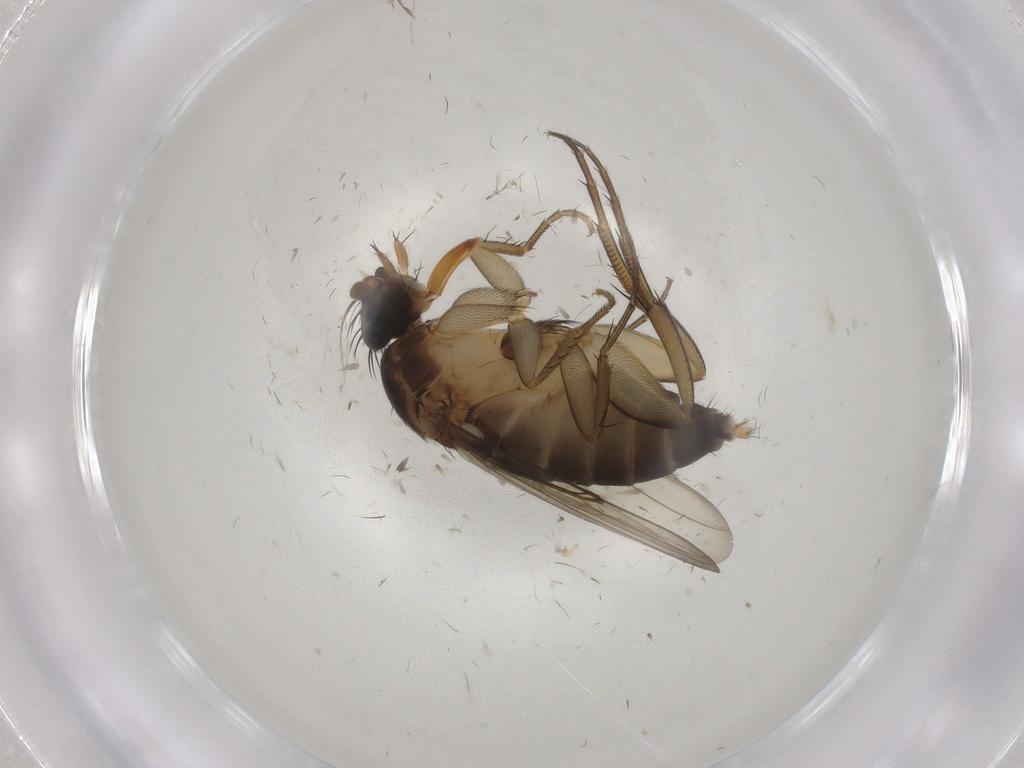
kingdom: Animalia
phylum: Arthropoda
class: Insecta
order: Diptera
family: Phoridae
